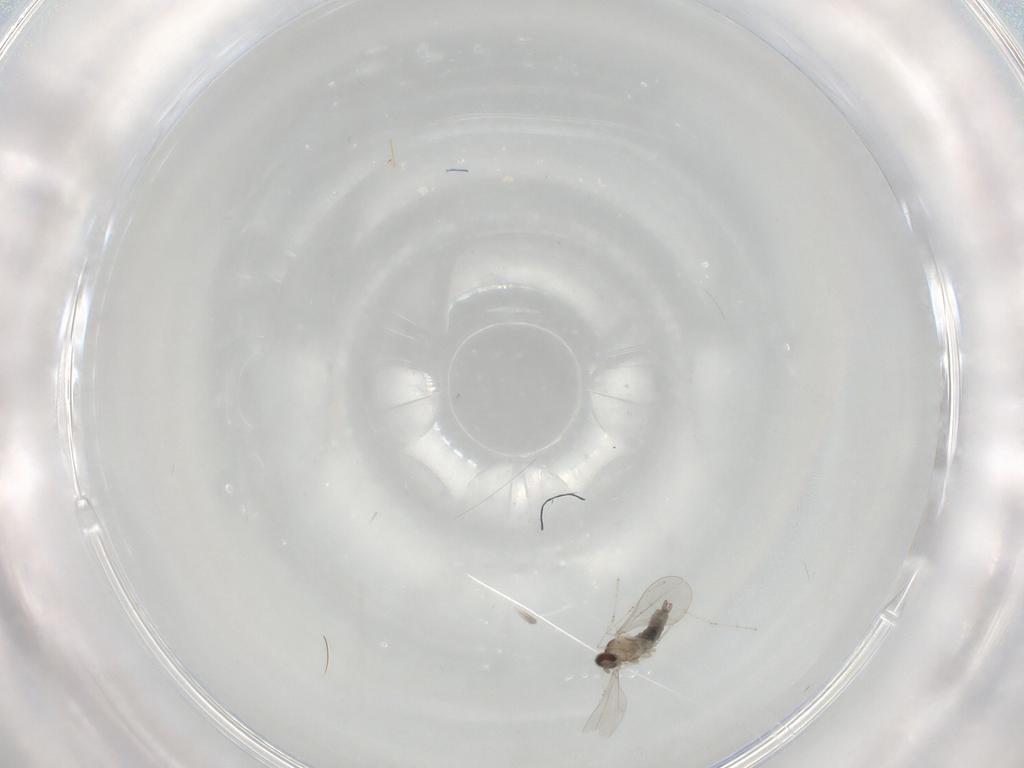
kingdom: Animalia
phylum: Arthropoda
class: Insecta
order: Diptera
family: Cecidomyiidae
